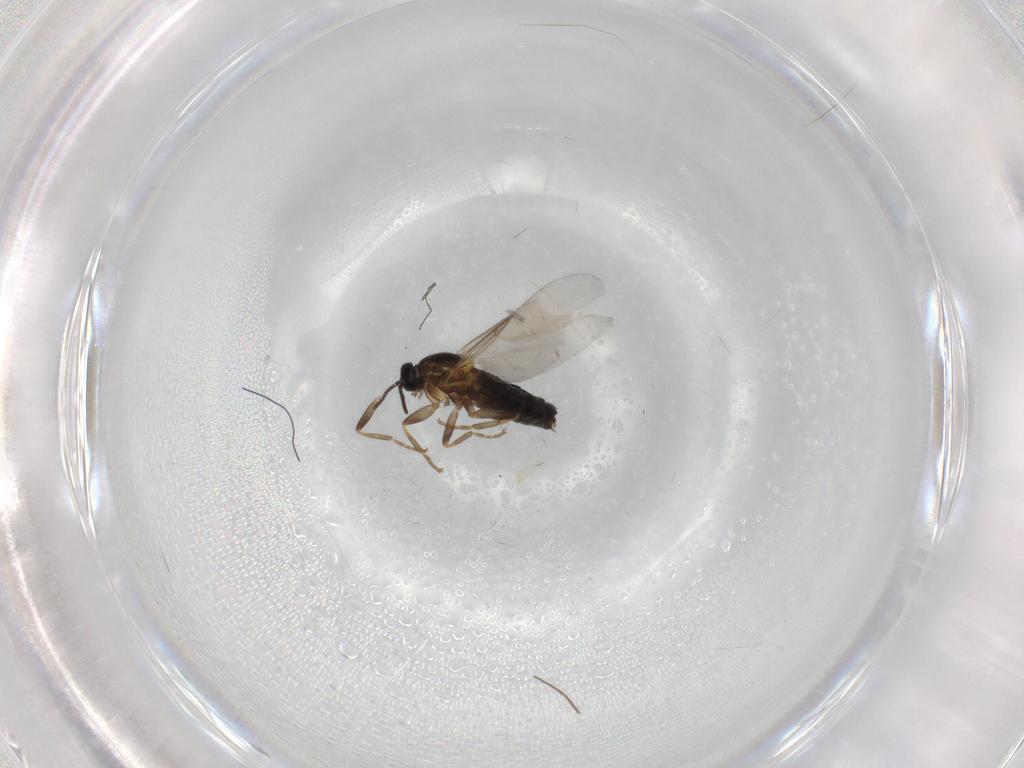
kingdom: Animalia
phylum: Arthropoda
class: Insecta
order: Diptera
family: Scatopsidae
